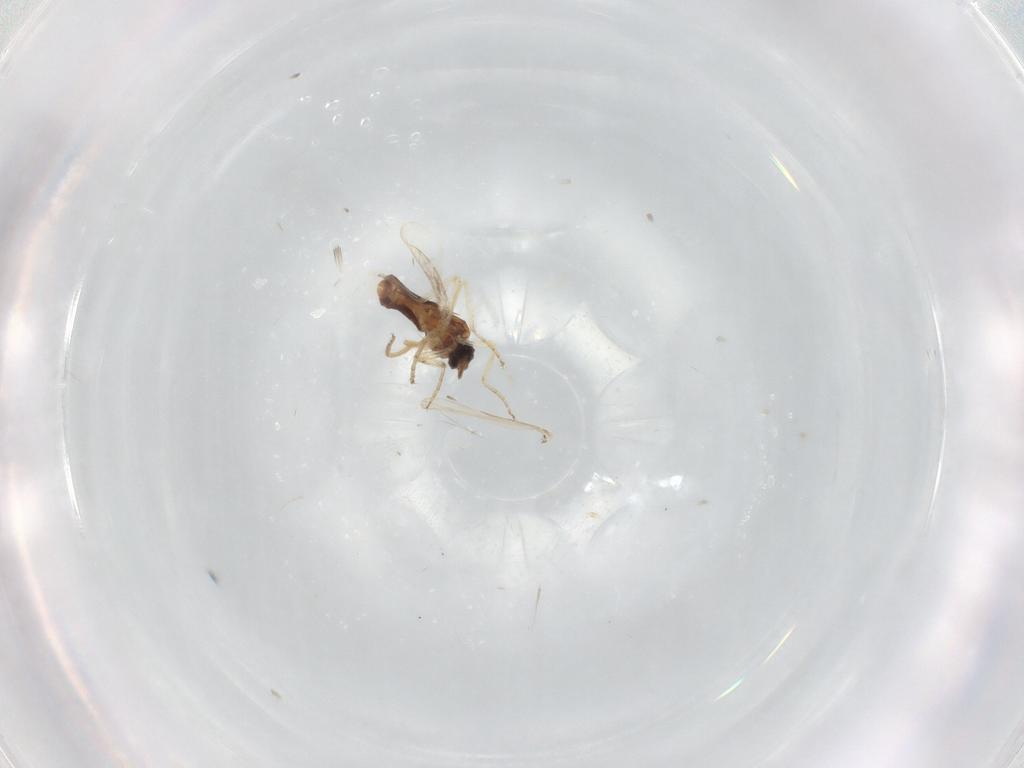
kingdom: Animalia
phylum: Arthropoda
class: Insecta
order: Diptera
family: Ceratopogonidae
